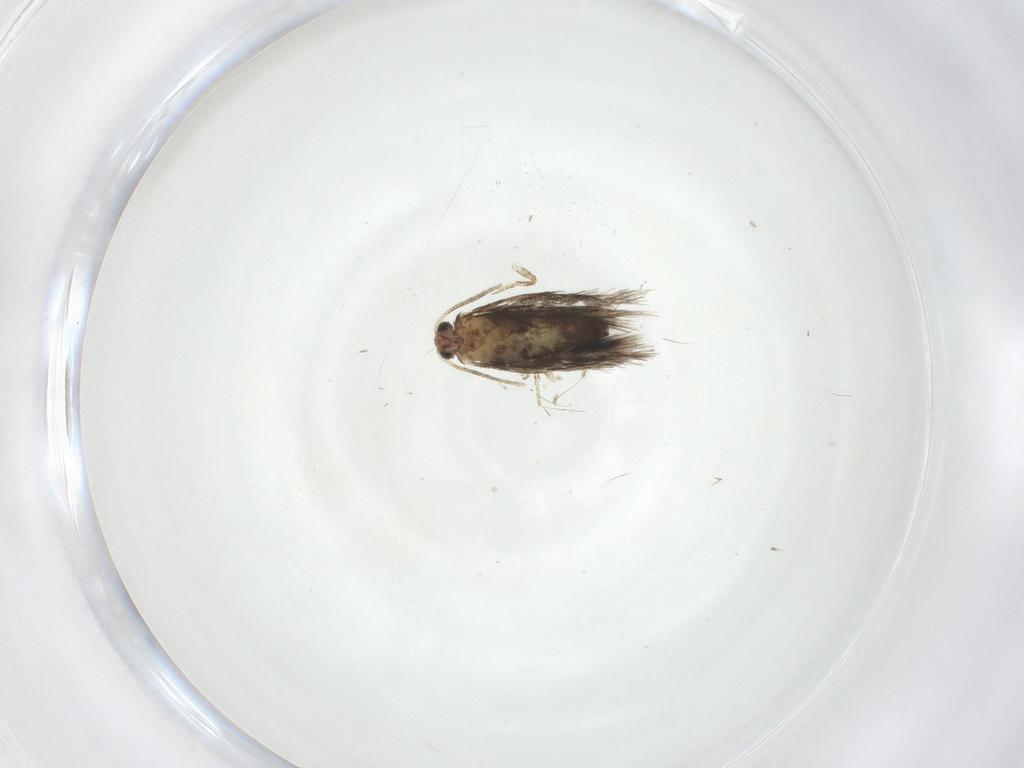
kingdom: Animalia
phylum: Arthropoda
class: Insecta
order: Lepidoptera
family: Nepticulidae
